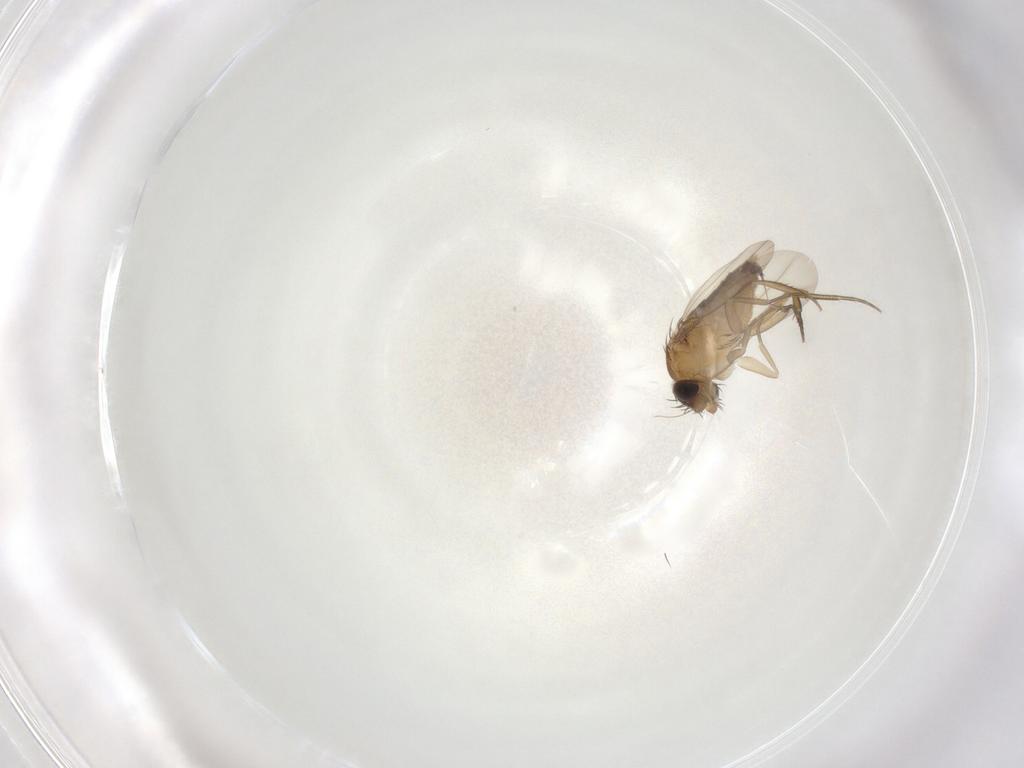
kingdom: Animalia
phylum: Arthropoda
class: Insecta
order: Diptera
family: Phoridae
